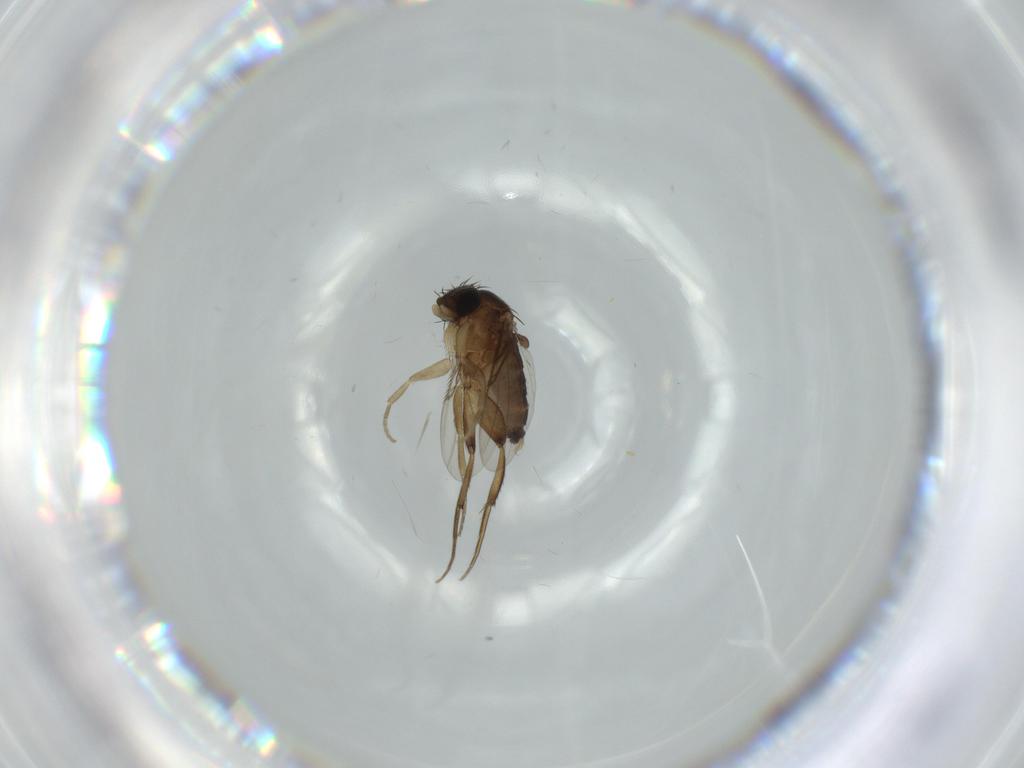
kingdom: Animalia
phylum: Arthropoda
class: Insecta
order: Diptera
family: Phoridae
